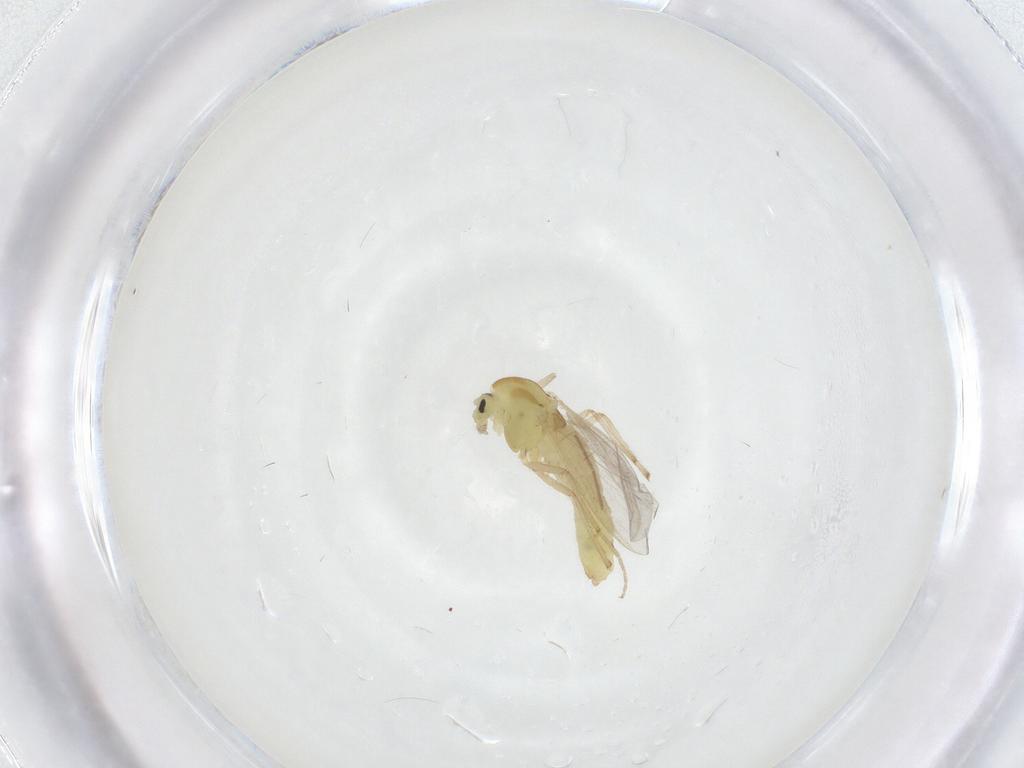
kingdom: Animalia
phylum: Arthropoda
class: Insecta
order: Diptera
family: Chironomidae
